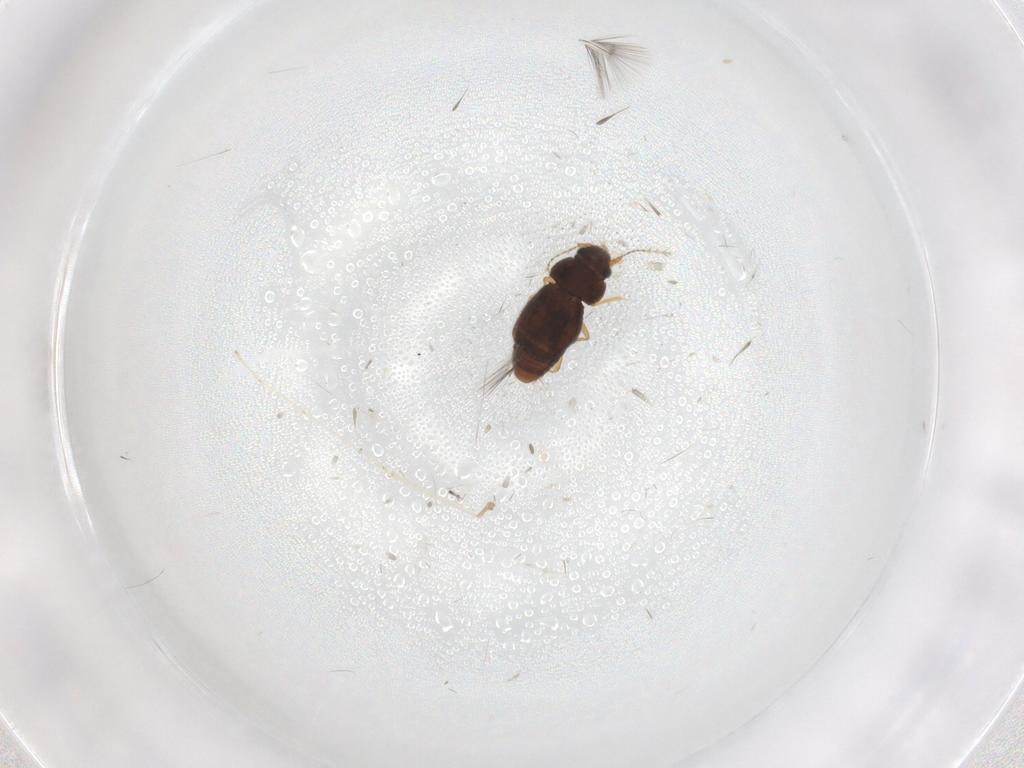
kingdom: Animalia
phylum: Arthropoda
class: Insecta
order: Coleoptera
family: Ptiliidae
